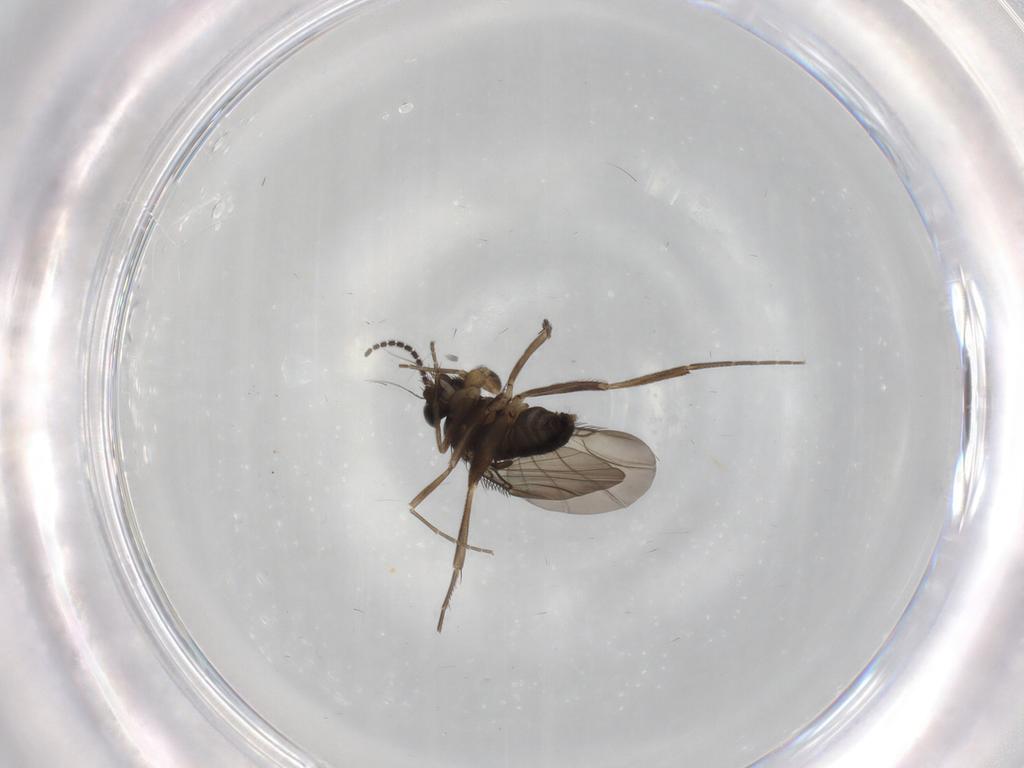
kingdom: Animalia
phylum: Arthropoda
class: Insecta
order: Diptera
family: Phoridae
